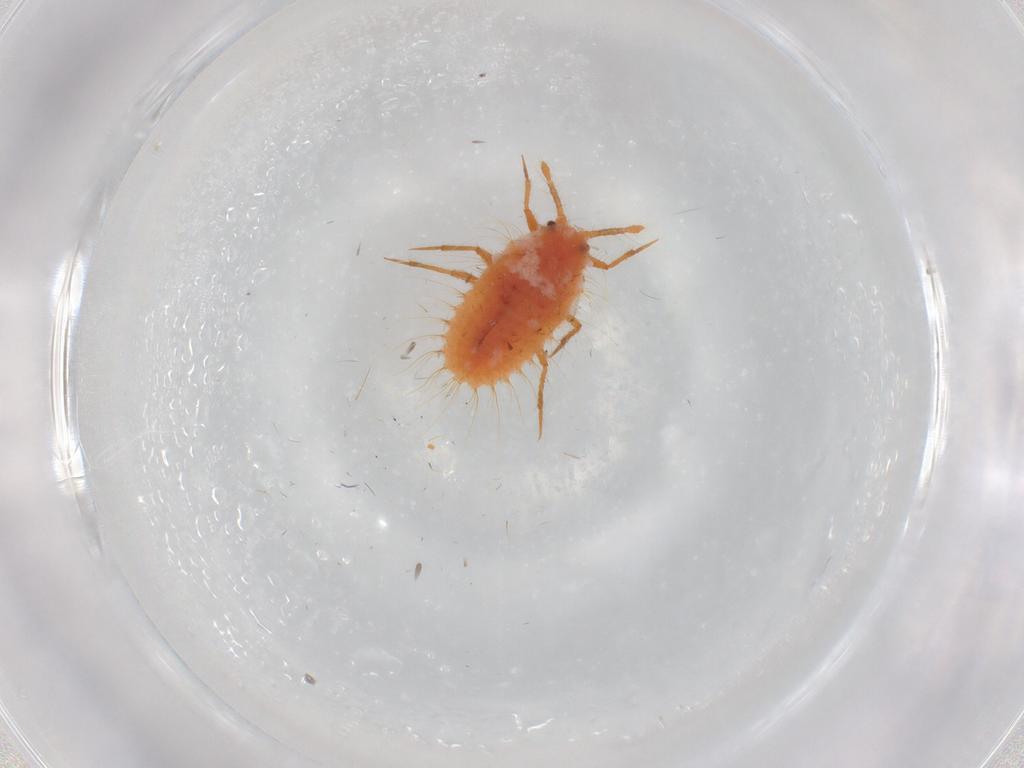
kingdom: Animalia
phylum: Arthropoda
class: Insecta
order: Hemiptera
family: Coccoidea_incertae_sedis
